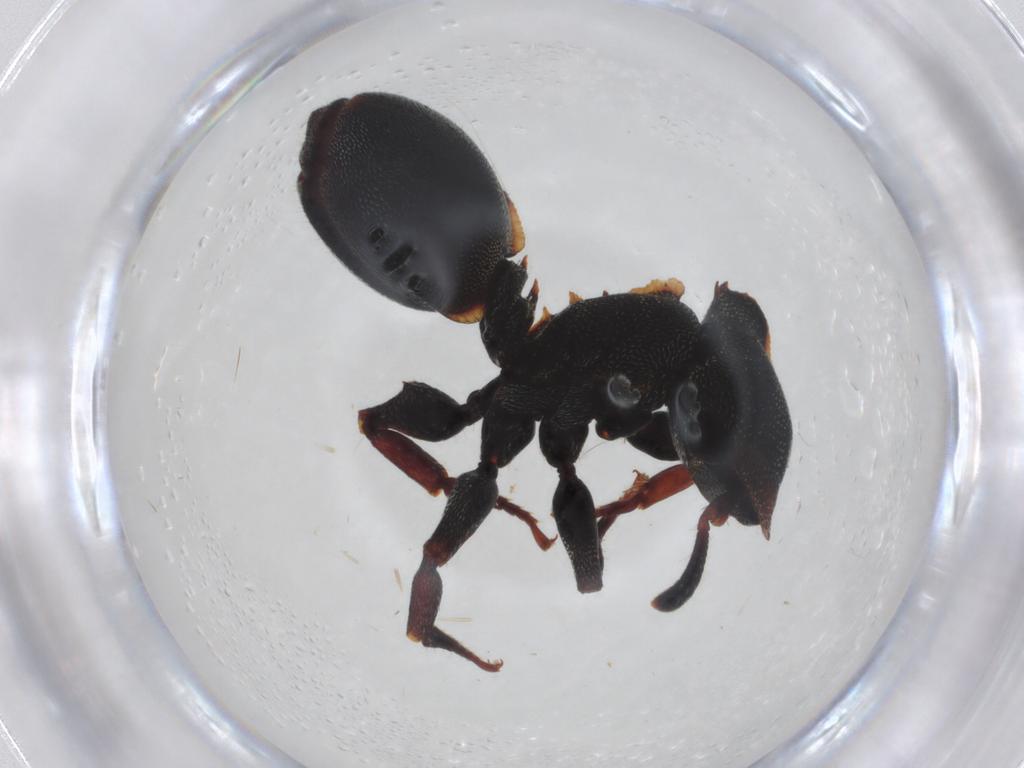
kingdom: Animalia
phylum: Arthropoda
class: Insecta
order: Hymenoptera
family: Formicidae
